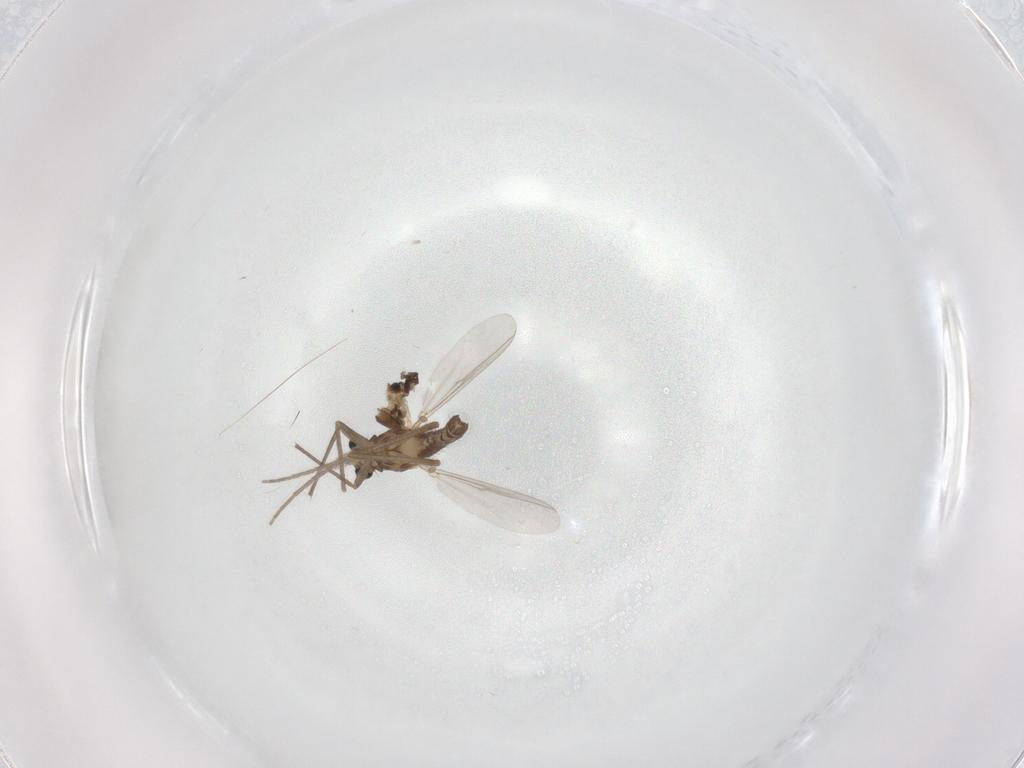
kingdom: Animalia
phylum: Arthropoda
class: Insecta
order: Diptera
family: Chironomidae
